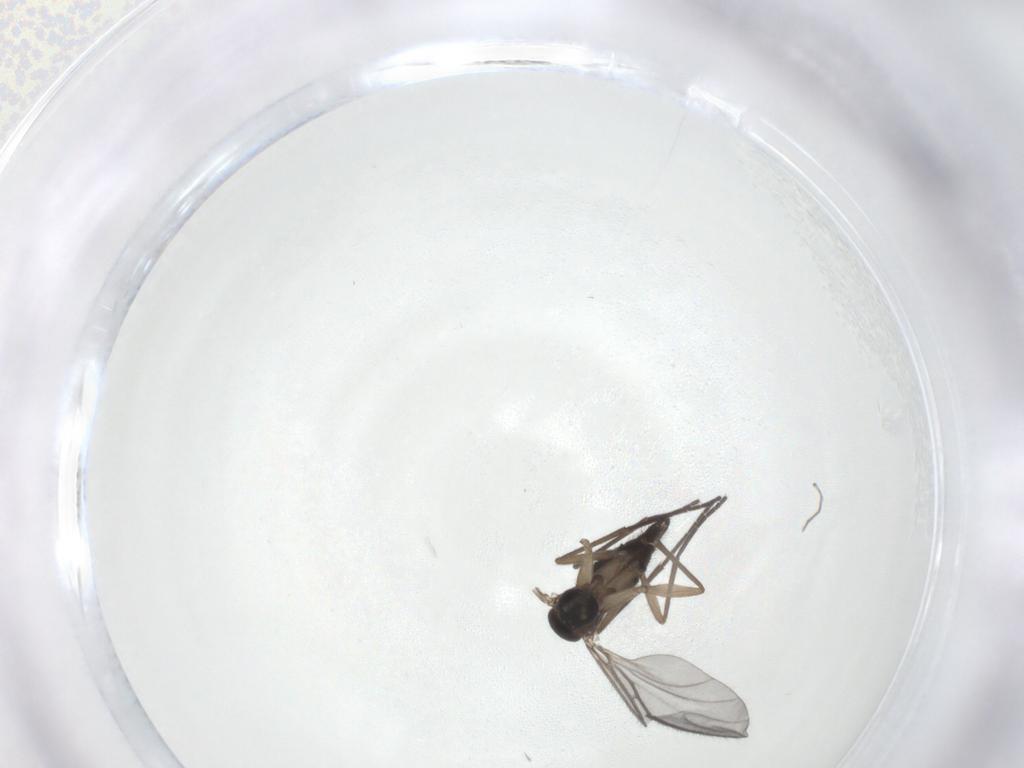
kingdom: Animalia
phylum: Arthropoda
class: Insecta
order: Diptera
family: Sciaridae
